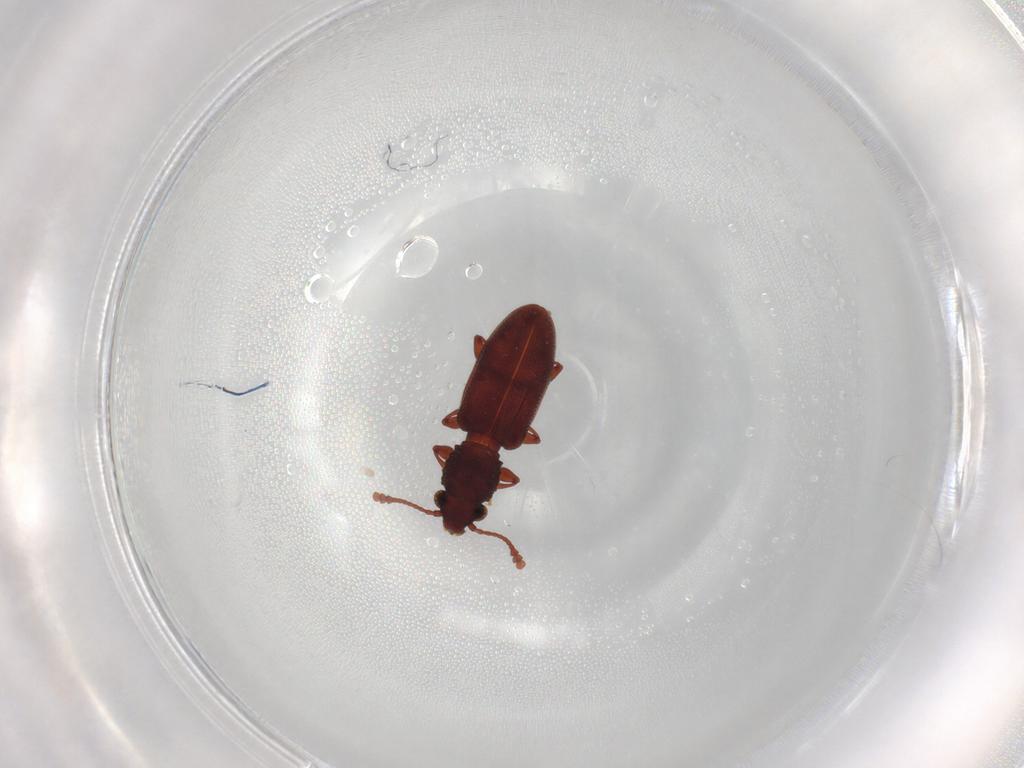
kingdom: Animalia
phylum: Arthropoda
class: Insecta
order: Coleoptera
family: Silvanidae
